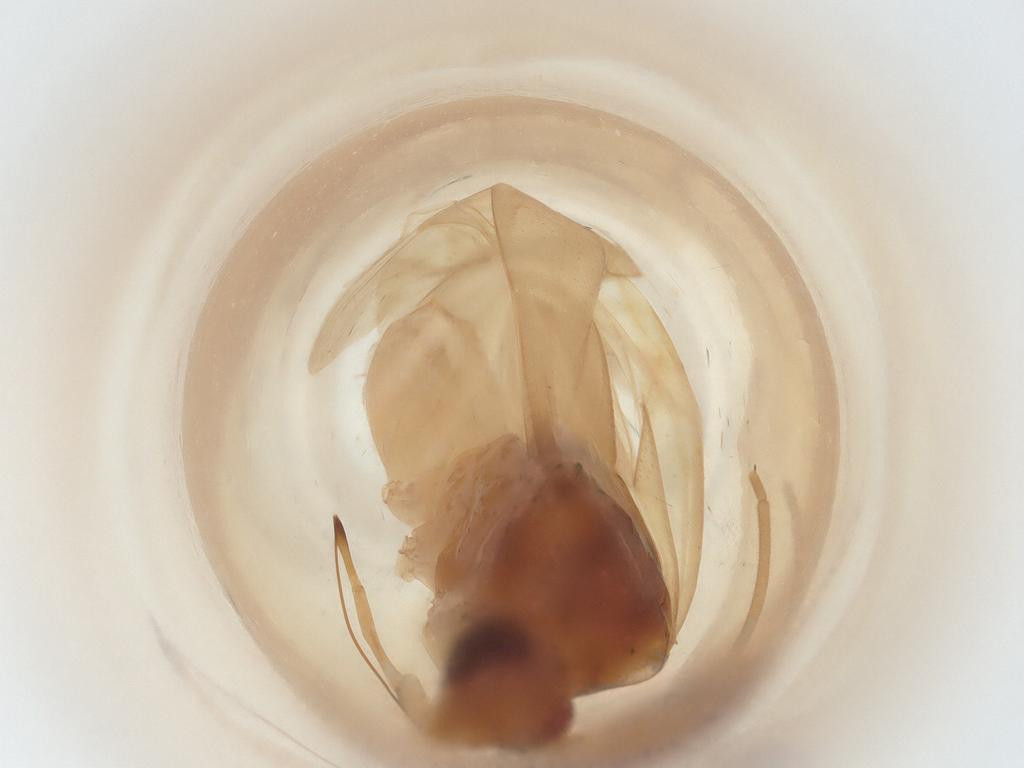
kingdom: Animalia
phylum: Arthropoda
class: Insecta
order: Hemiptera
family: Miridae
